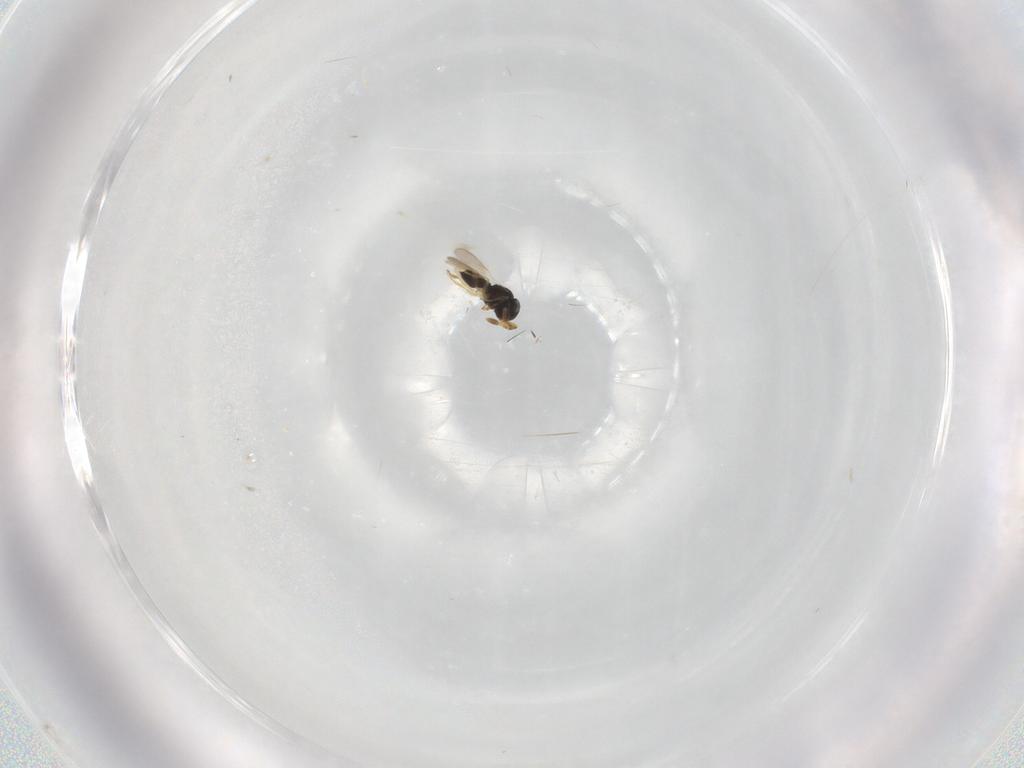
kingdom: Animalia
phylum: Arthropoda
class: Insecta
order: Hymenoptera
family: Scelionidae
